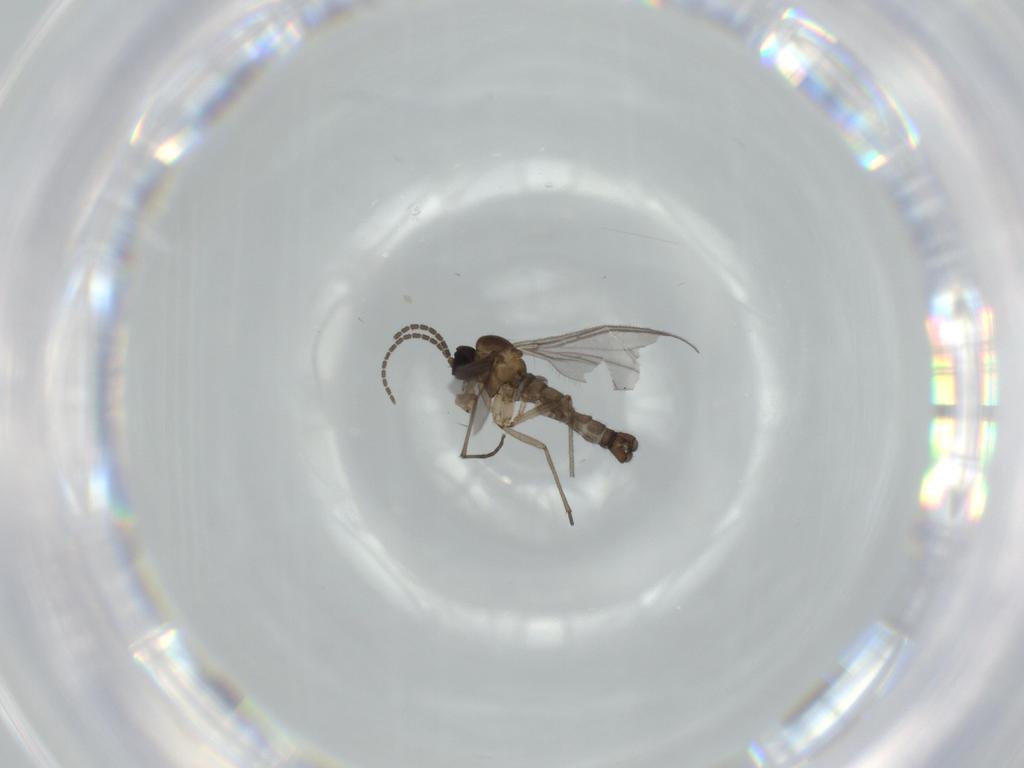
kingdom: Animalia
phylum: Arthropoda
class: Insecta
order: Diptera
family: Sciaridae
